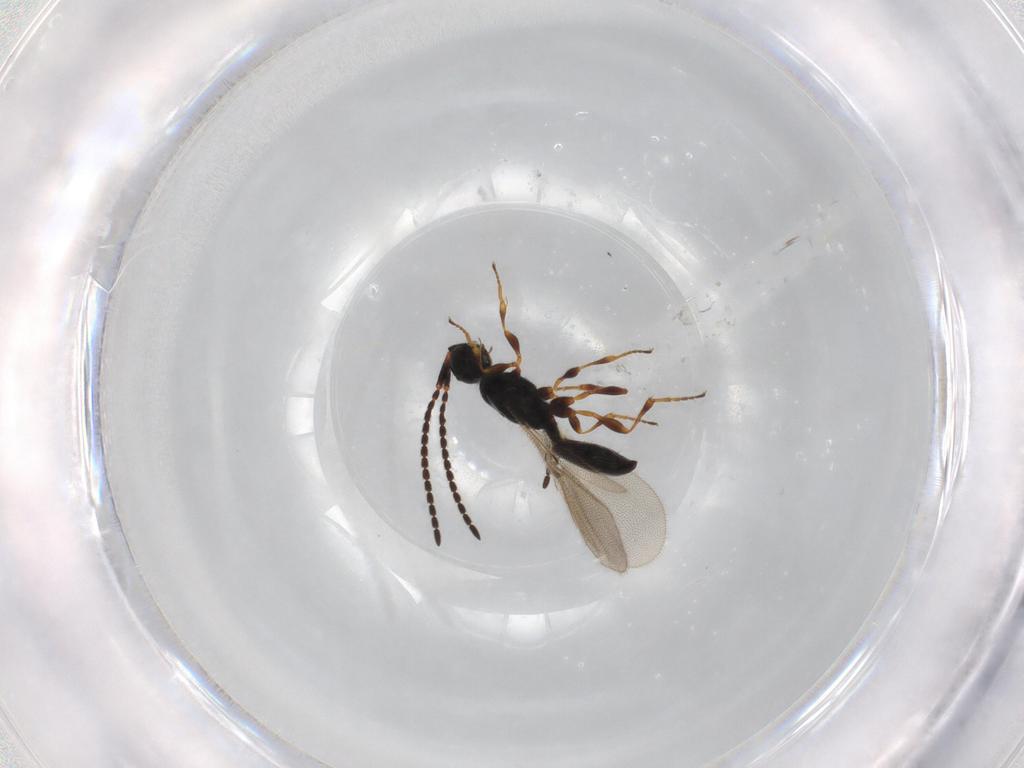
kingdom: Animalia
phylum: Arthropoda
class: Insecta
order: Hymenoptera
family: Diapriidae
